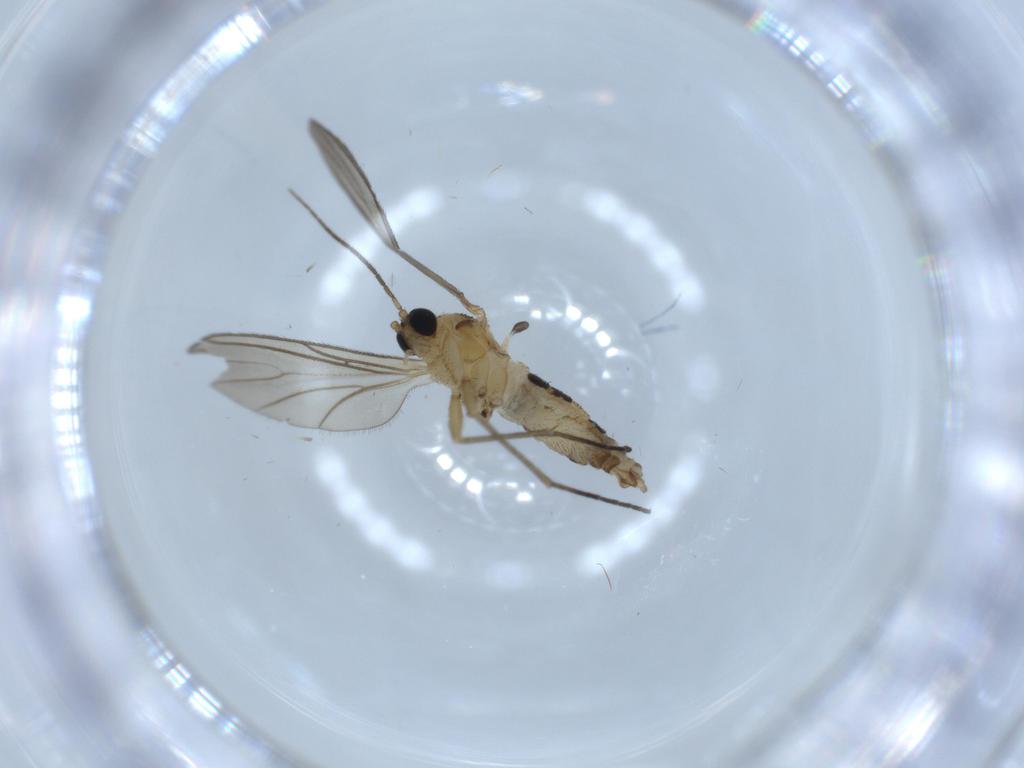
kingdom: Animalia
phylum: Arthropoda
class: Insecta
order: Diptera
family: Sciaridae
